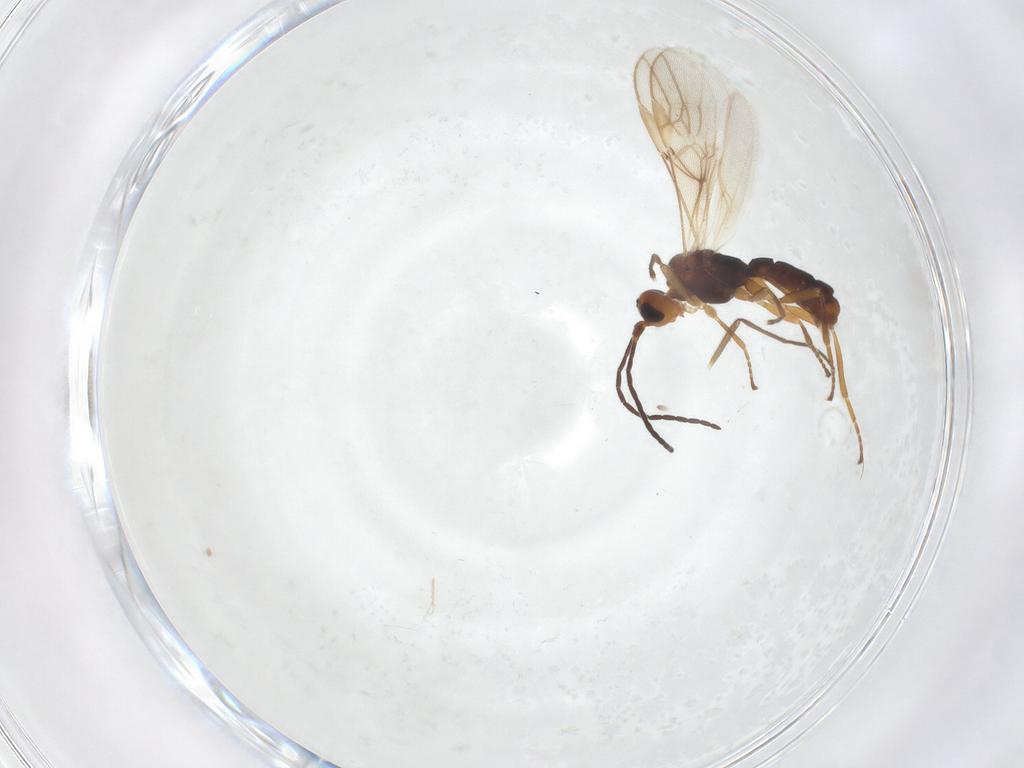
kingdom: Animalia
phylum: Arthropoda
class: Insecta
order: Hymenoptera
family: Braconidae
